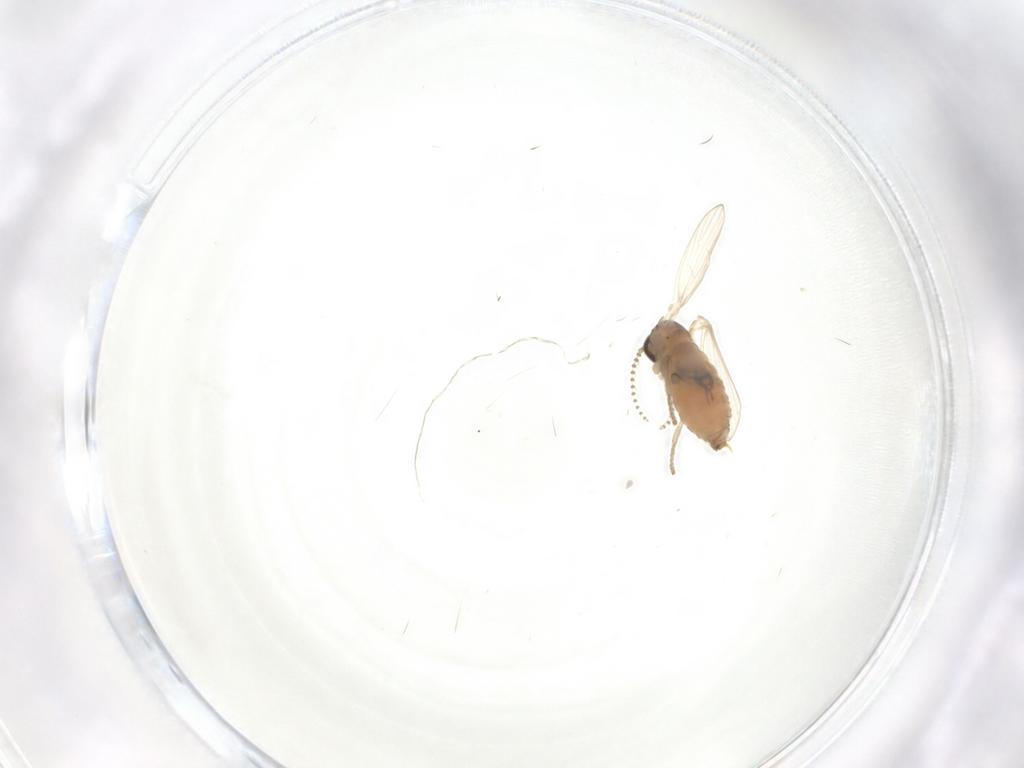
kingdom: Animalia
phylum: Arthropoda
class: Insecta
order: Diptera
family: Psychodidae
